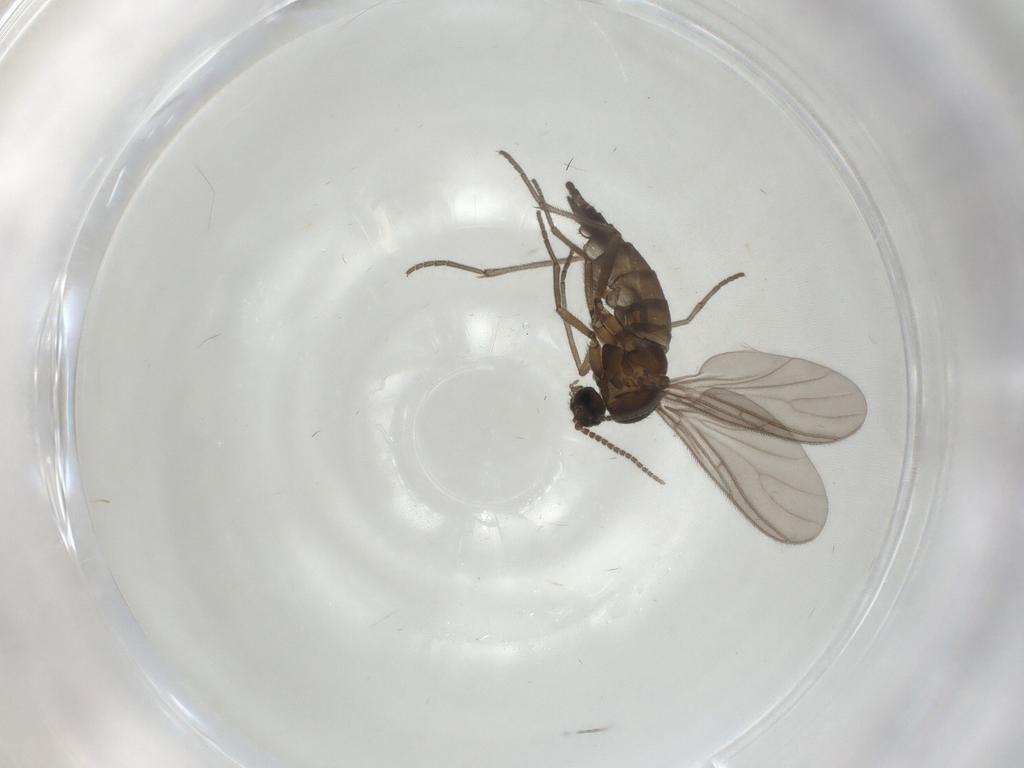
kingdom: Animalia
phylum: Arthropoda
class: Insecta
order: Diptera
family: Sciaridae
